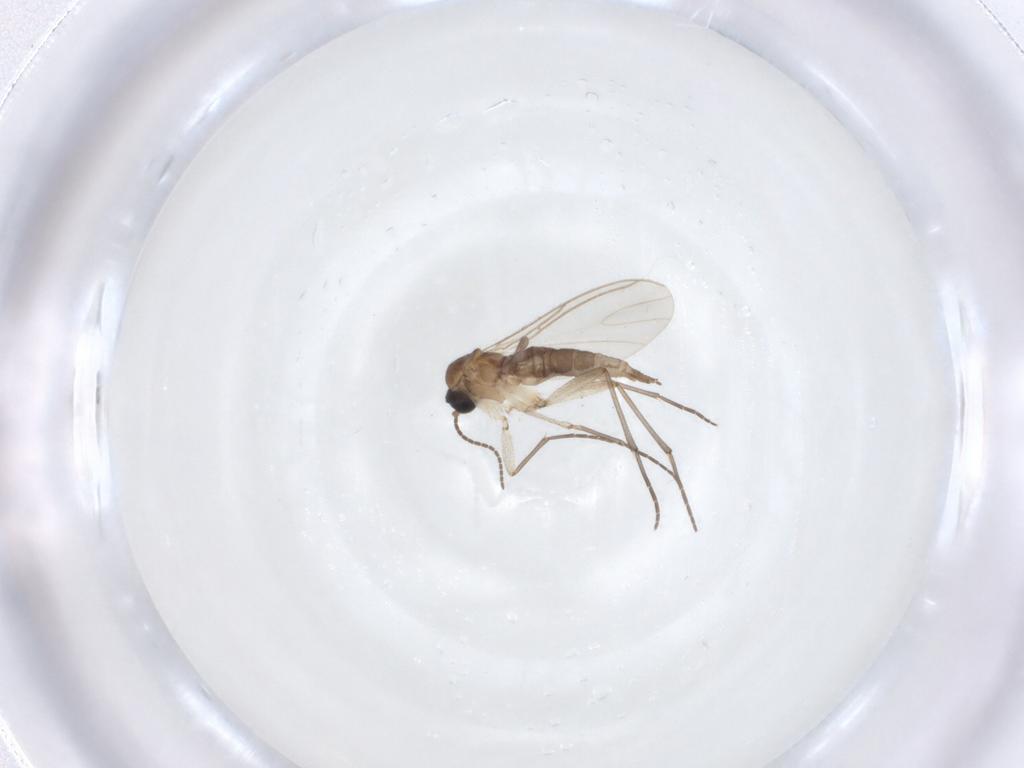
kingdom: Animalia
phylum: Arthropoda
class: Insecta
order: Diptera
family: Sciaridae
